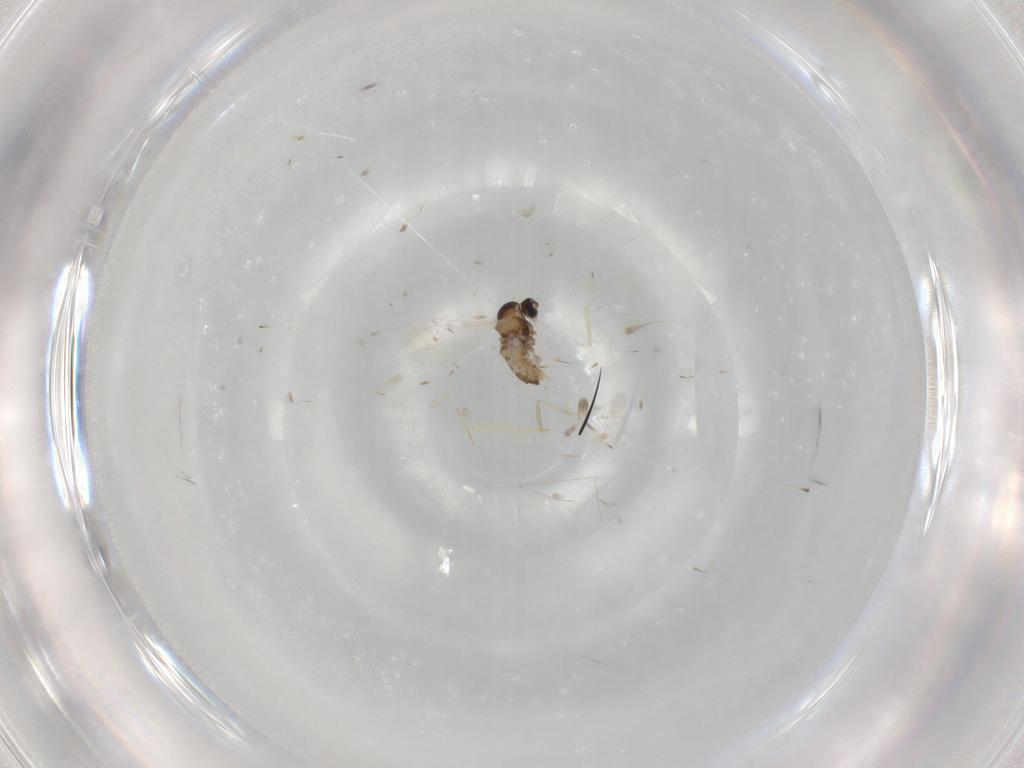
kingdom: Animalia
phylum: Arthropoda
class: Insecta
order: Diptera
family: Cecidomyiidae
